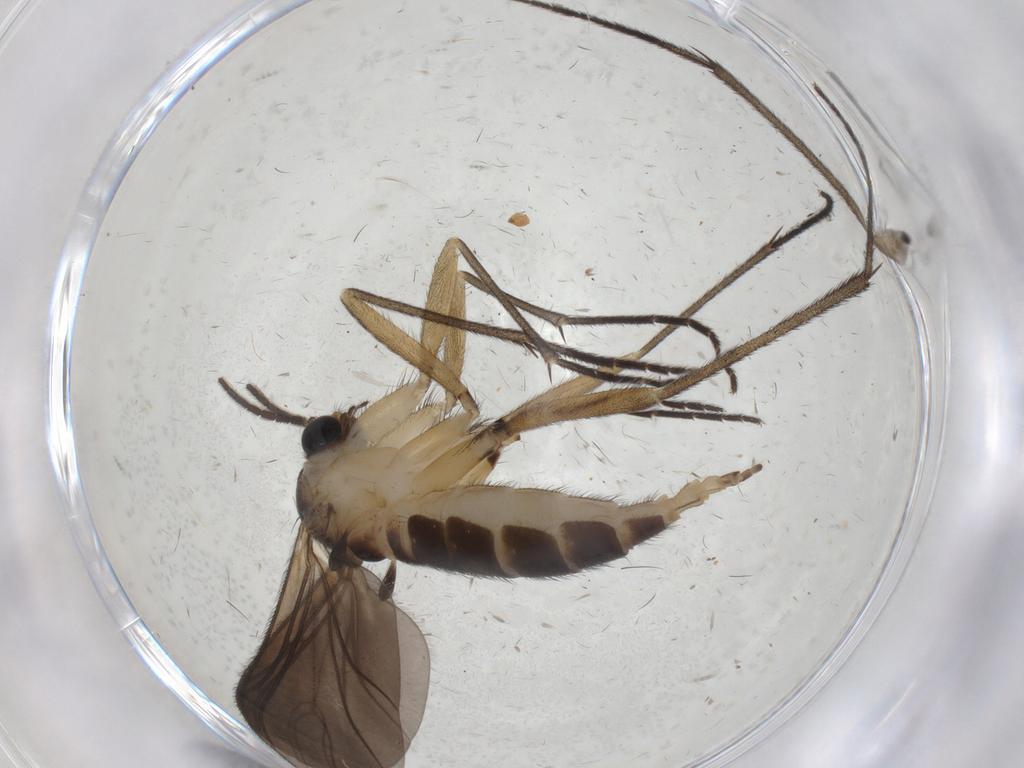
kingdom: Animalia
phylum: Arthropoda
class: Insecta
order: Diptera
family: Sciaridae
